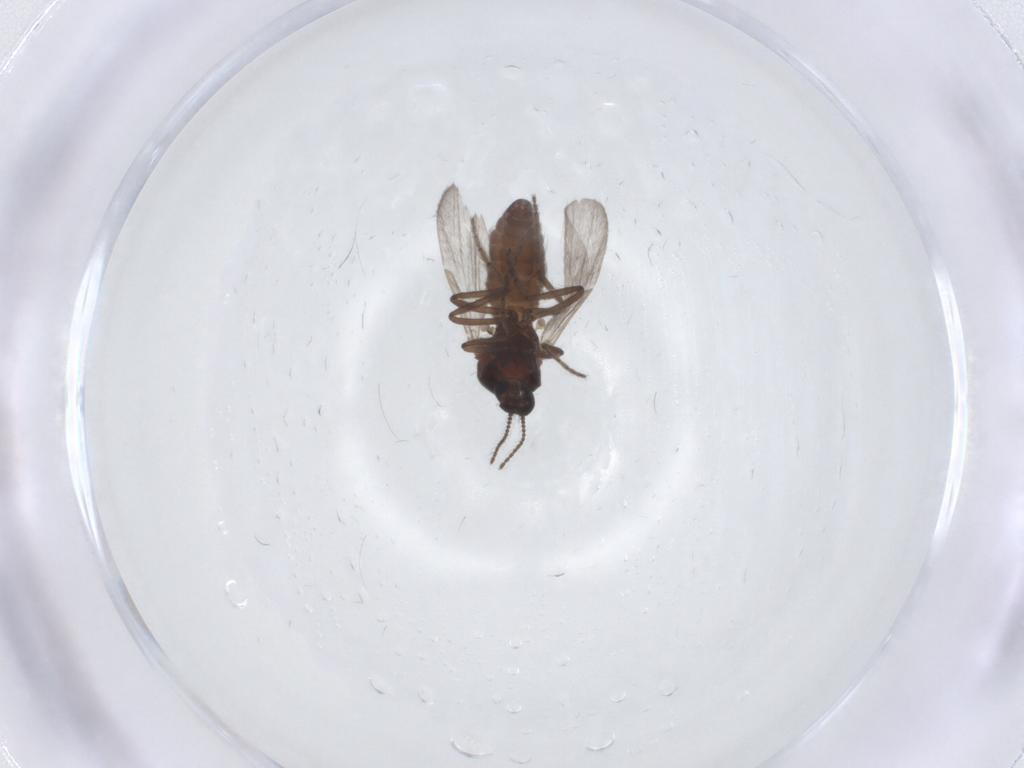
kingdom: Animalia
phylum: Arthropoda
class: Insecta
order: Diptera
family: Ceratopogonidae
